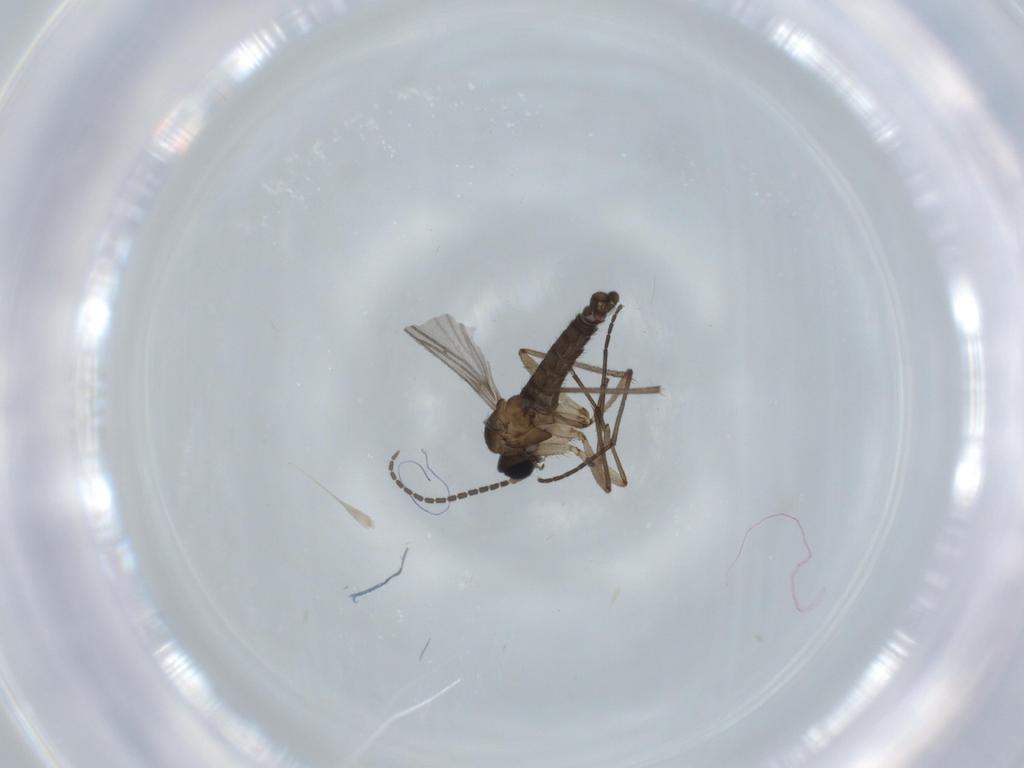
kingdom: Animalia
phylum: Arthropoda
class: Insecta
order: Diptera
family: Sciaridae
